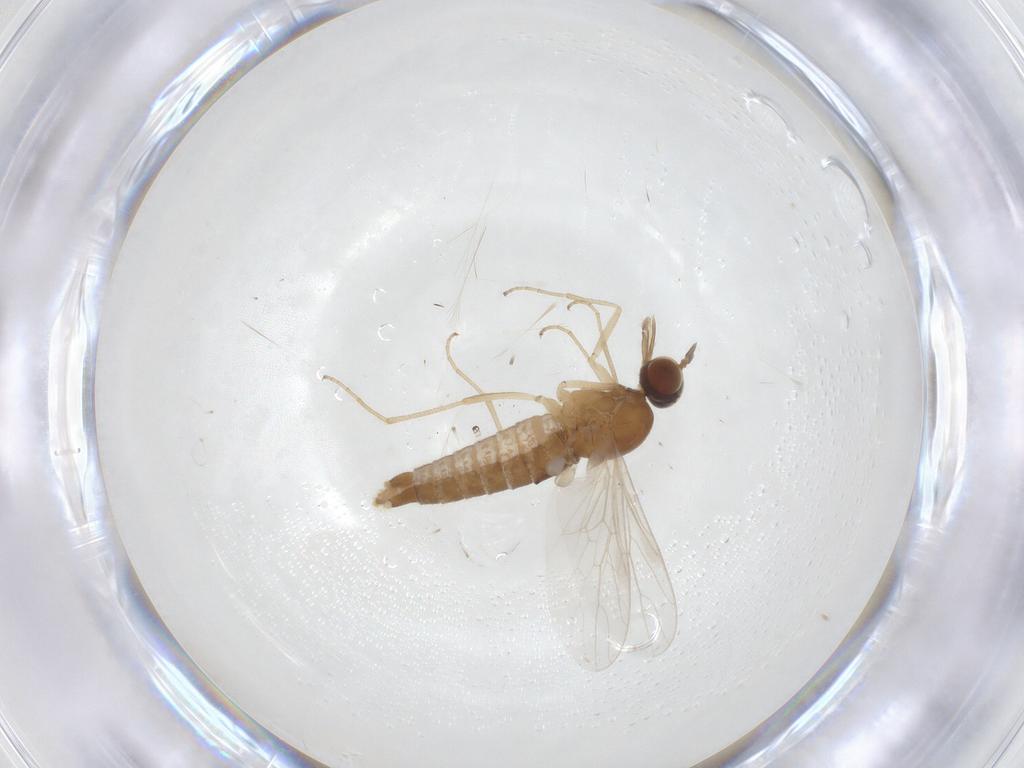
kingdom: Animalia
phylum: Arthropoda
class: Insecta
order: Diptera
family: Scenopinidae
